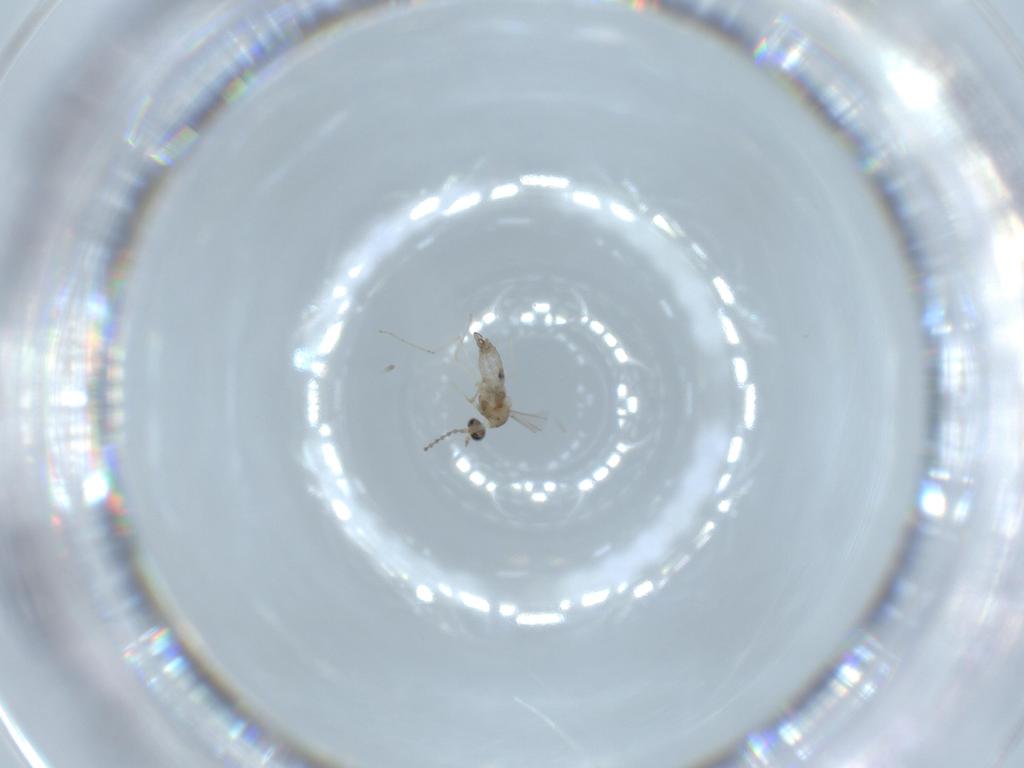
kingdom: Animalia
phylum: Arthropoda
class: Insecta
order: Diptera
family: Cecidomyiidae
